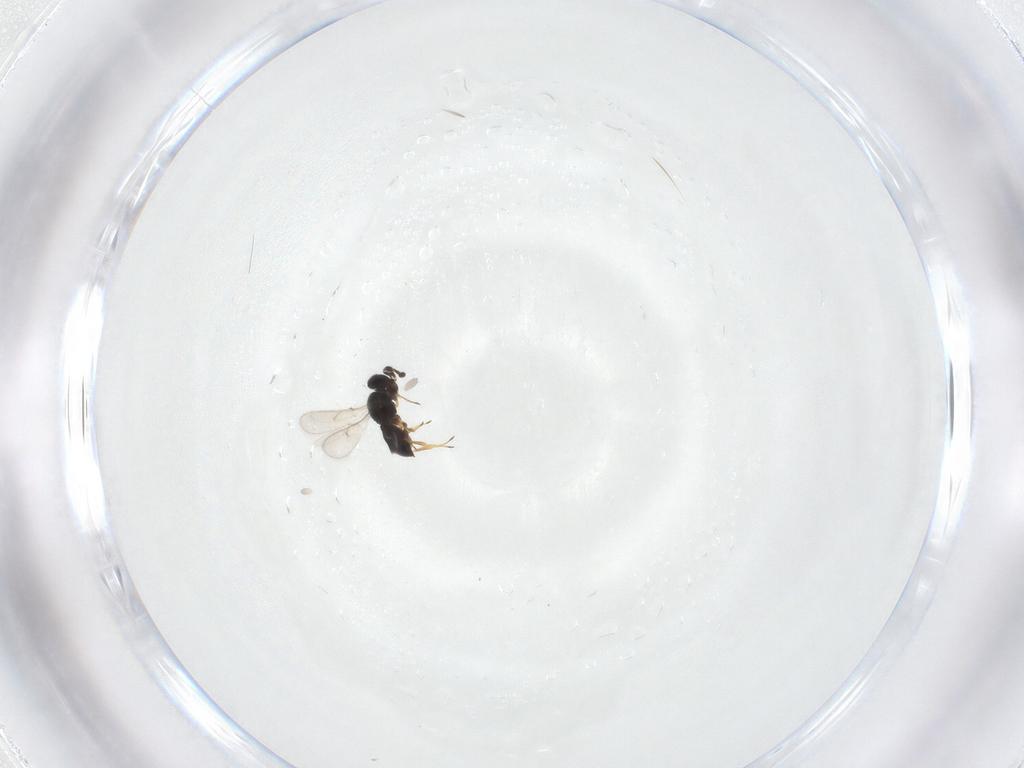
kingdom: Animalia
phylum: Arthropoda
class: Insecta
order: Hymenoptera
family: Scelionidae
